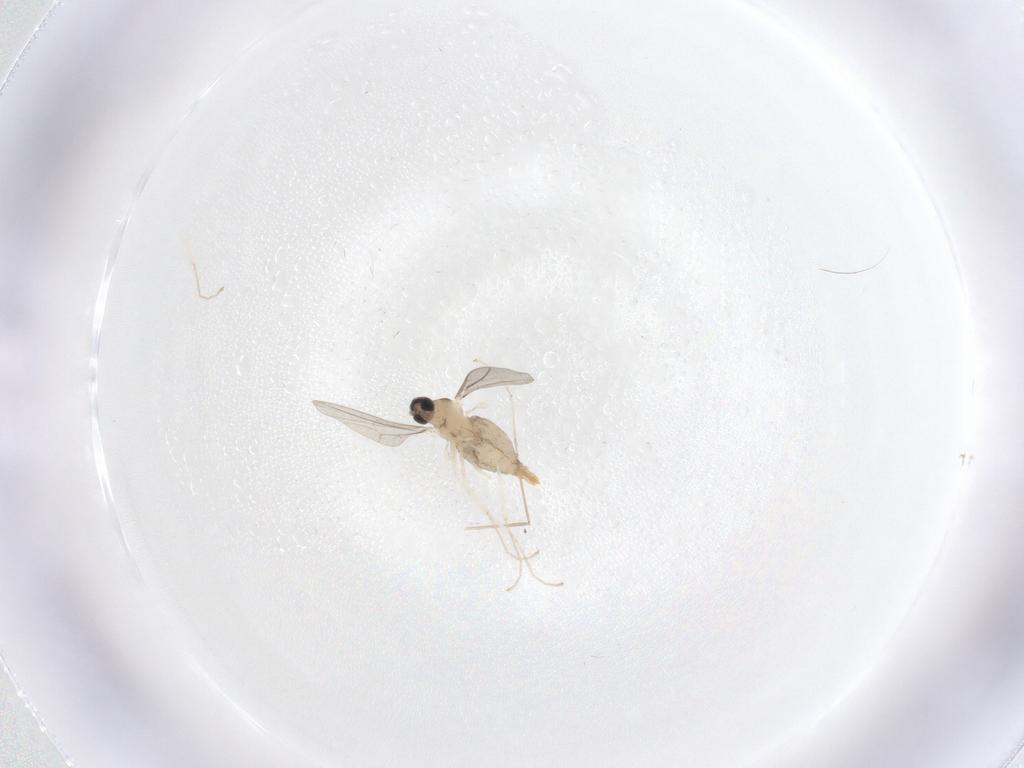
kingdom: Animalia
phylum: Arthropoda
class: Insecta
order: Diptera
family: Cecidomyiidae
